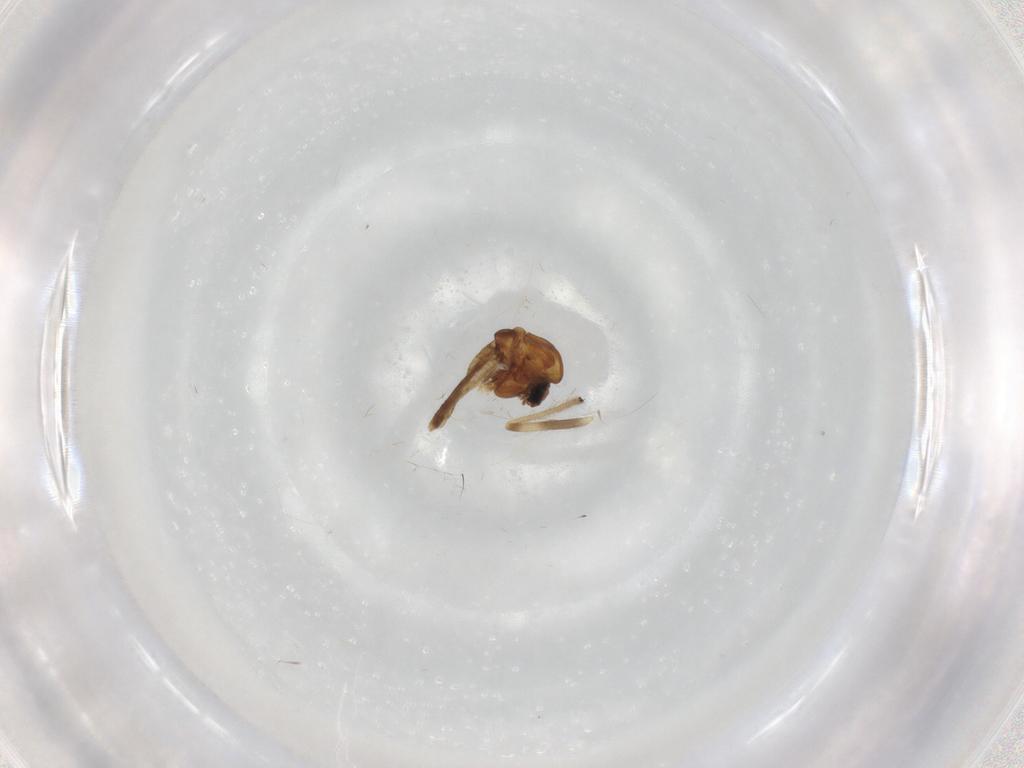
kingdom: Animalia
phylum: Arthropoda
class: Insecta
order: Diptera
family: Chironomidae
